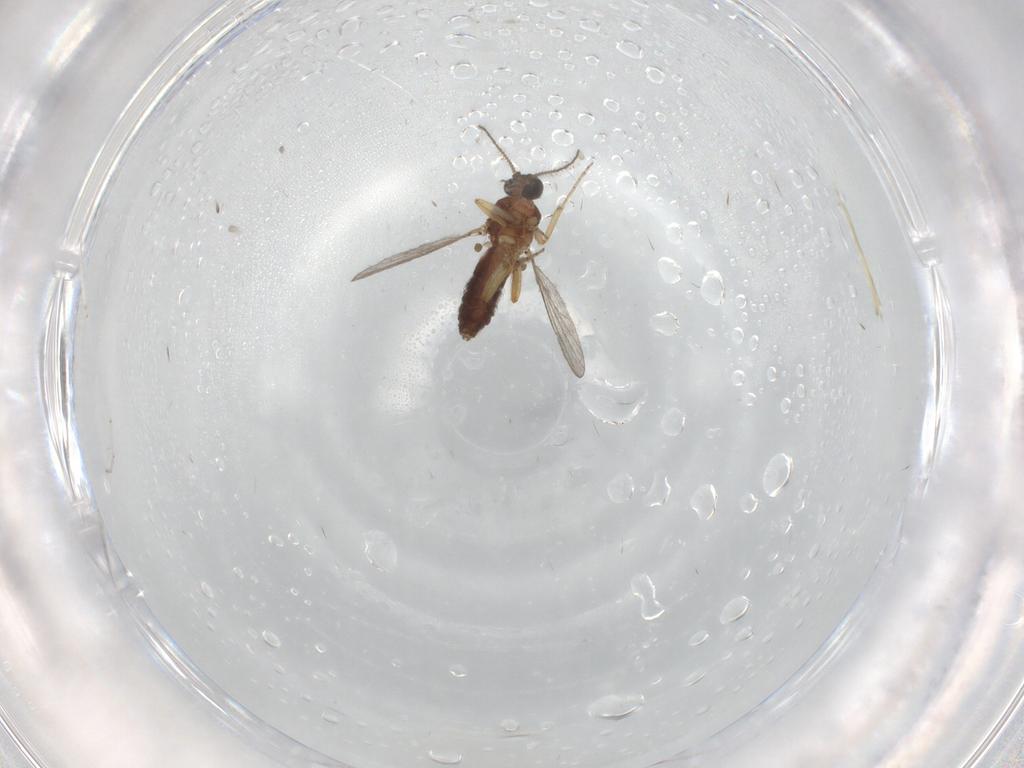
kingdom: Animalia
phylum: Arthropoda
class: Insecta
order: Diptera
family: Ceratopogonidae
